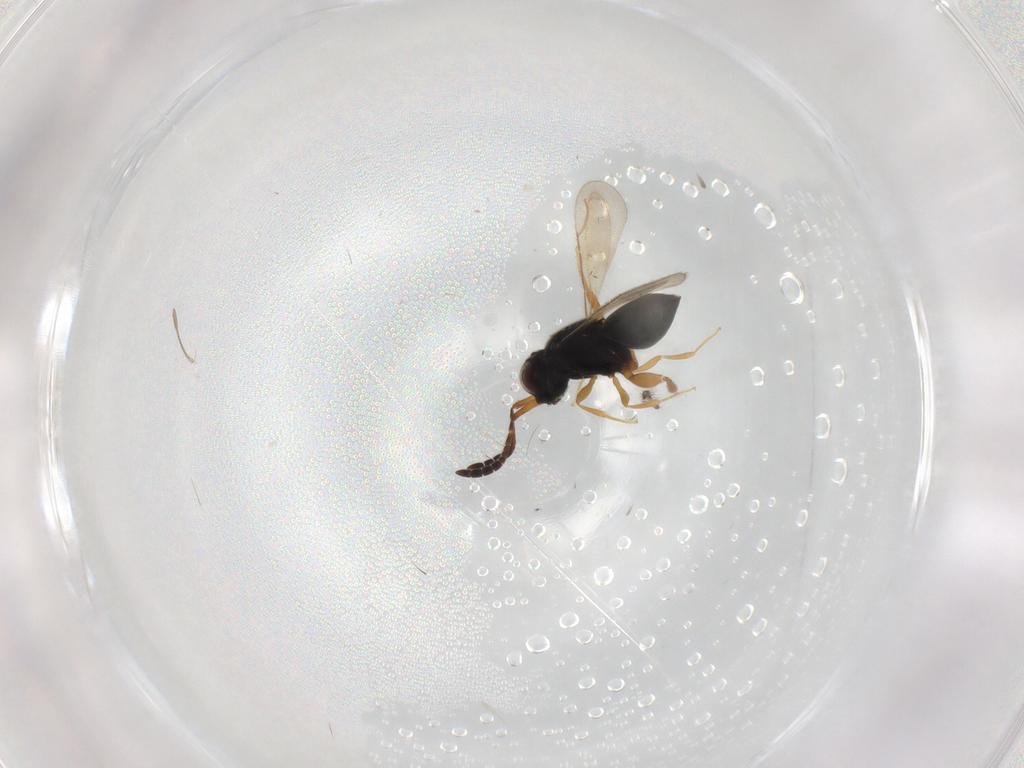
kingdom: Animalia
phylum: Arthropoda
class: Insecta
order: Hymenoptera
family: Ceraphronidae
